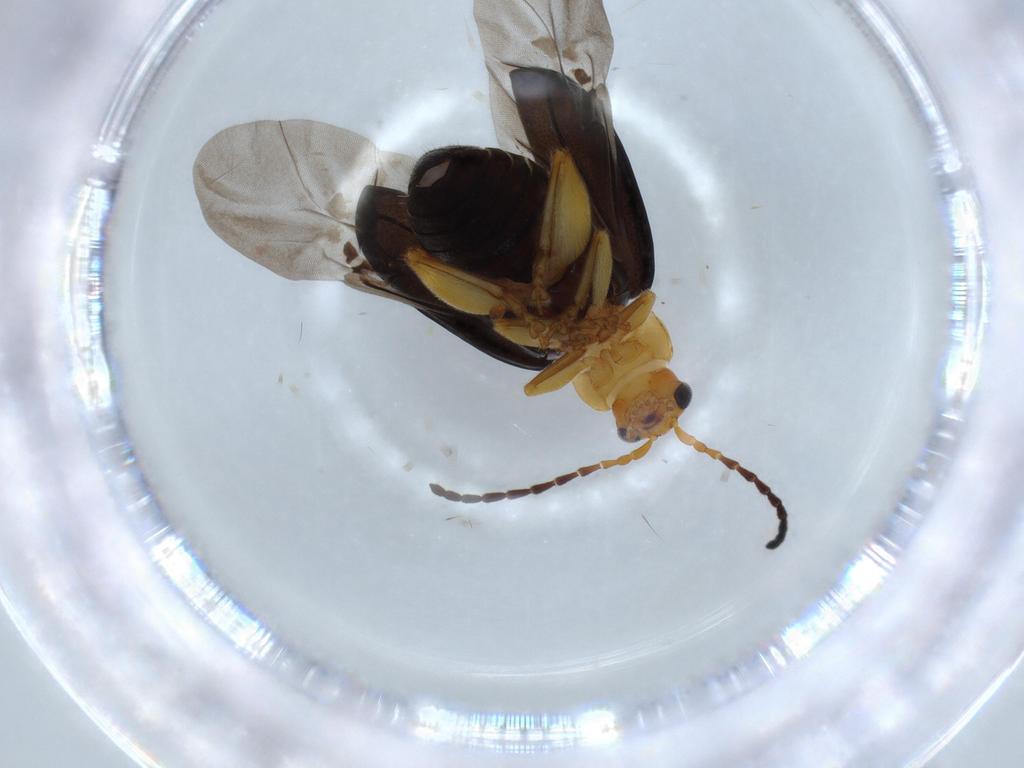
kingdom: Animalia
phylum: Arthropoda
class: Insecta
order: Coleoptera
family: Chrysomelidae
